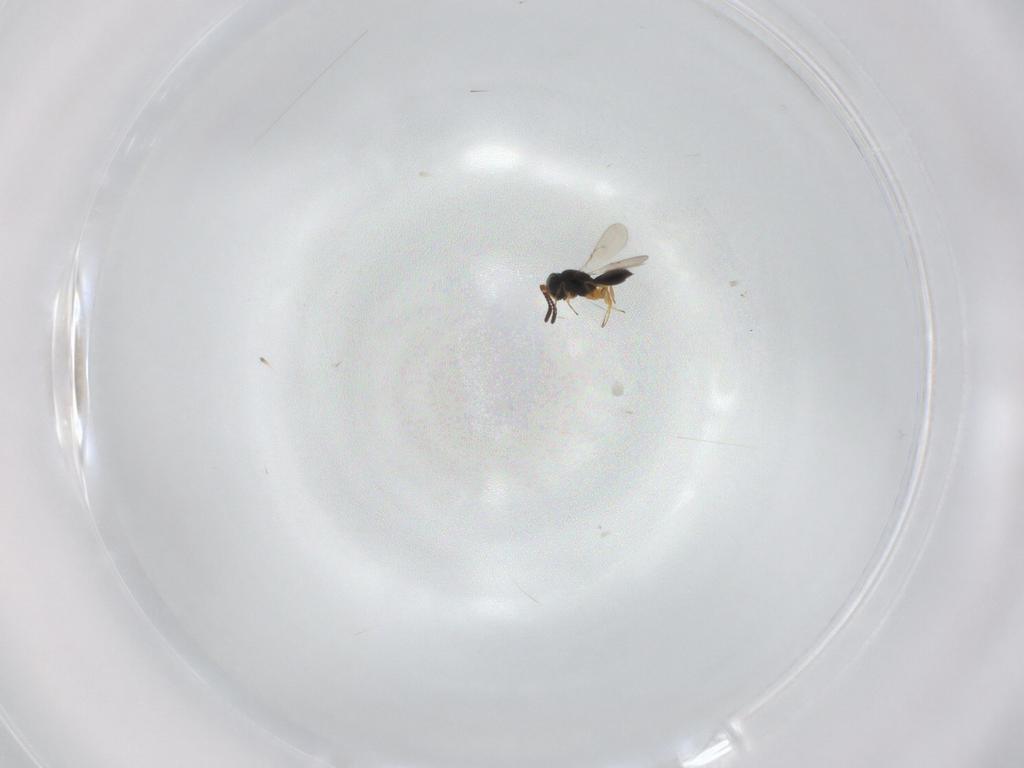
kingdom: Animalia
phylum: Arthropoda
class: Insecta
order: Hymenoptera
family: Scelionidae
